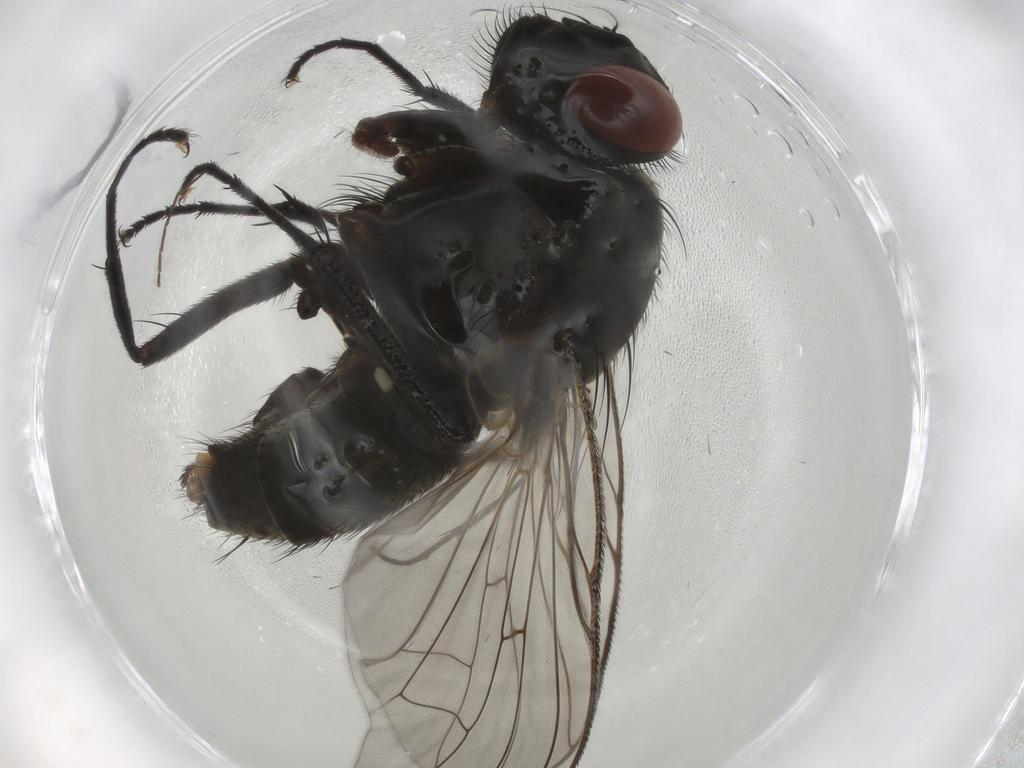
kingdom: Animalia
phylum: Arthropoda
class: Insecta
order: Diptera
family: Muscidae
